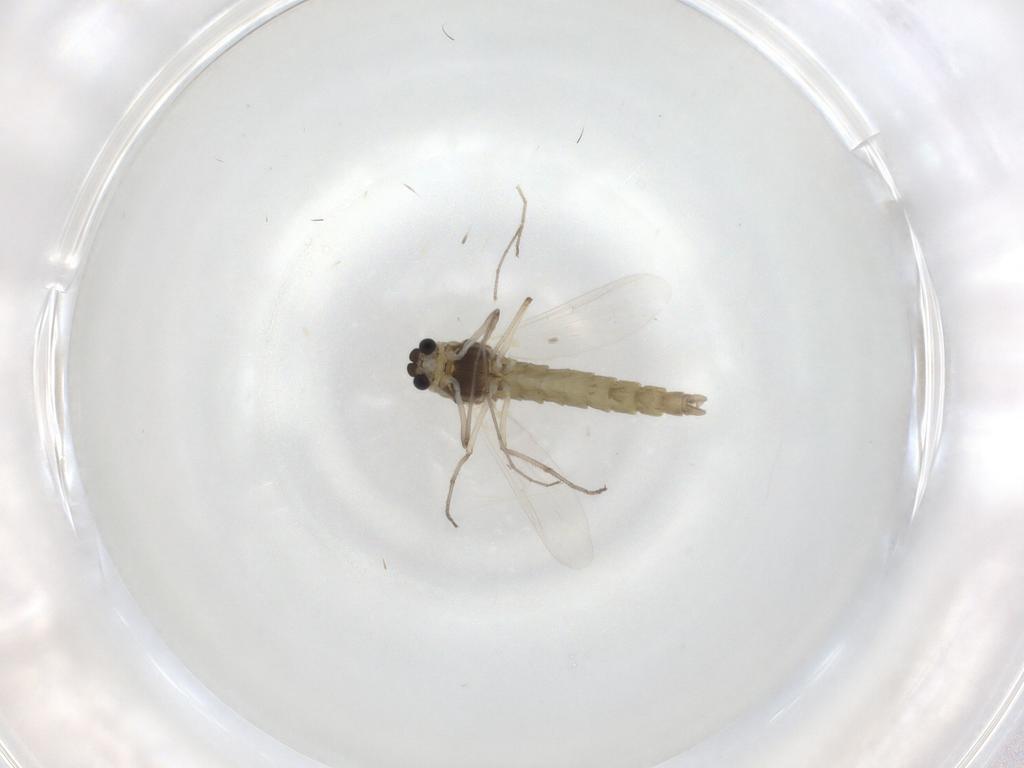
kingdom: Animalia
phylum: Arthropoda
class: Insecta
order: Diptera
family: Chironomidae
